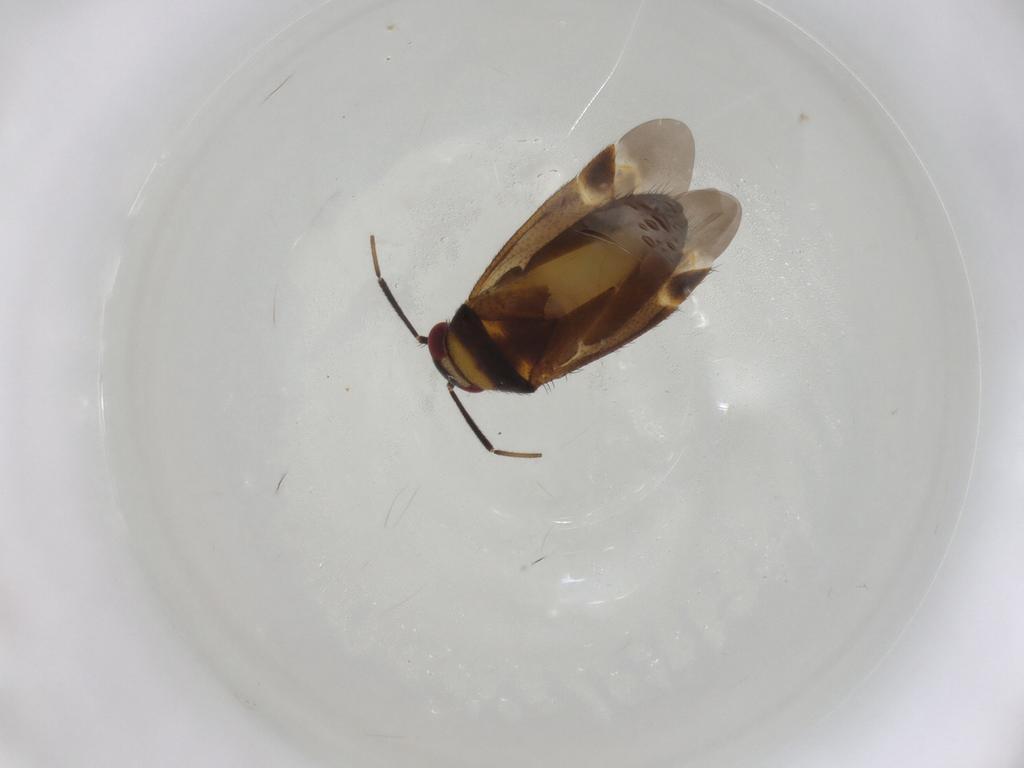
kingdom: Animalia
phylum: Arthropoda
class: Insecta
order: Hemiptera
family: Miridae
